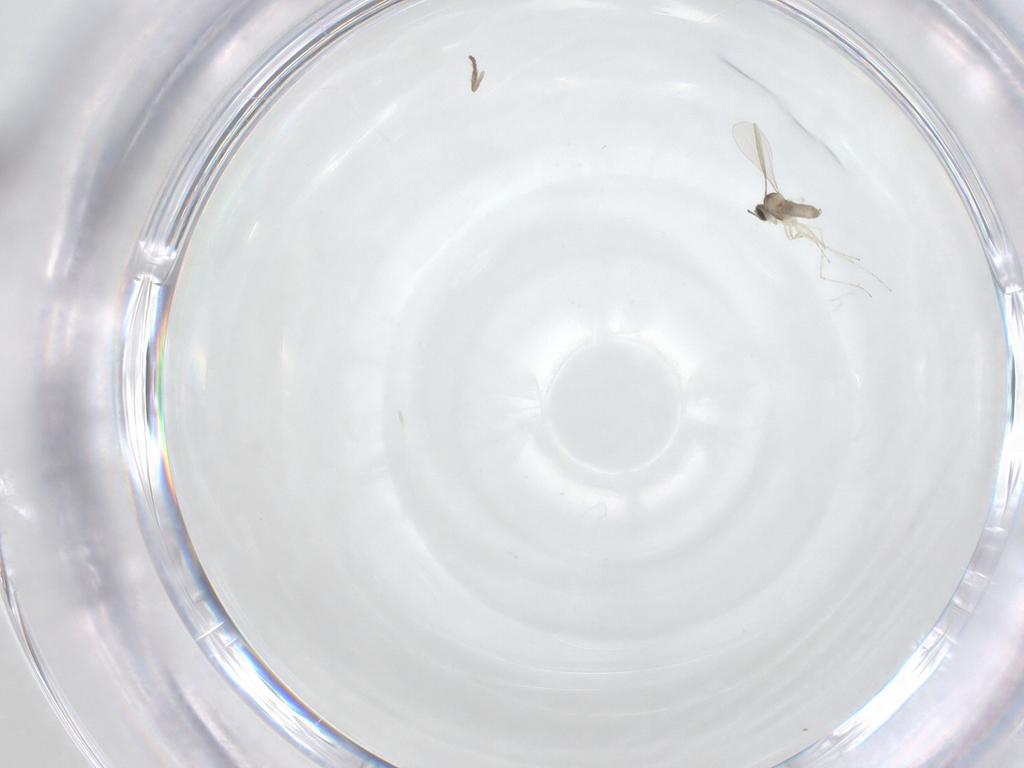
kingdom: Animalia
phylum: Arthropoda
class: Insecta
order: Diptera
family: Psychodidae
